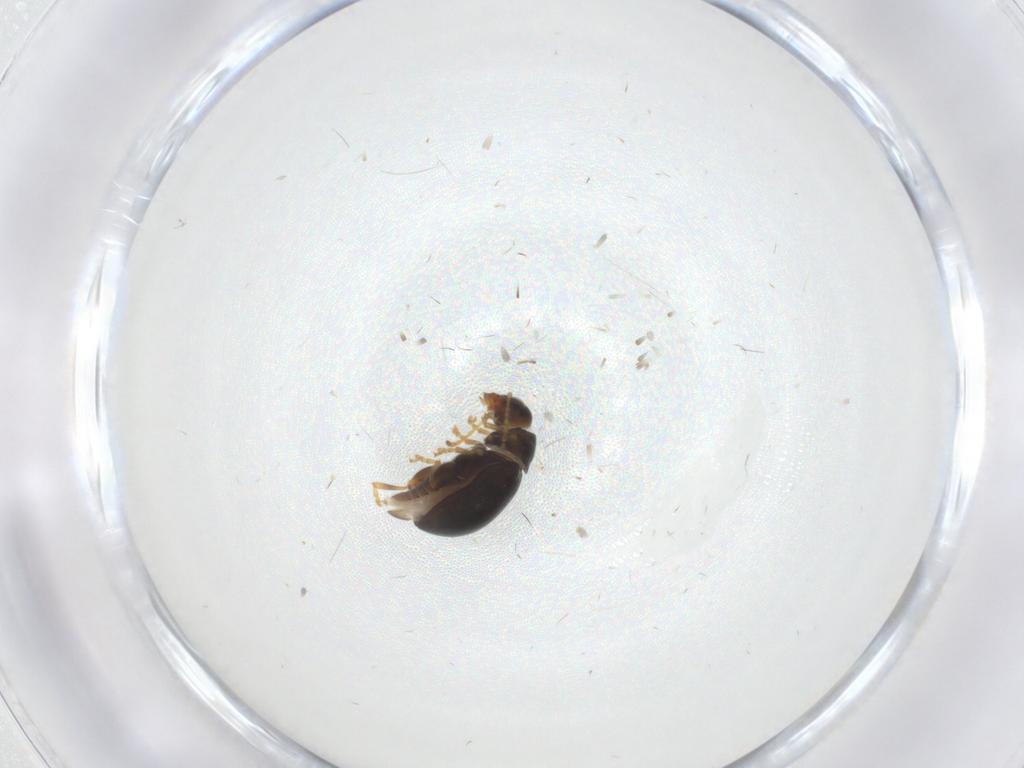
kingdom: Animalia
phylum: Arthropoda
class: Insecta
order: Coleoptera
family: Chrysomelidae
